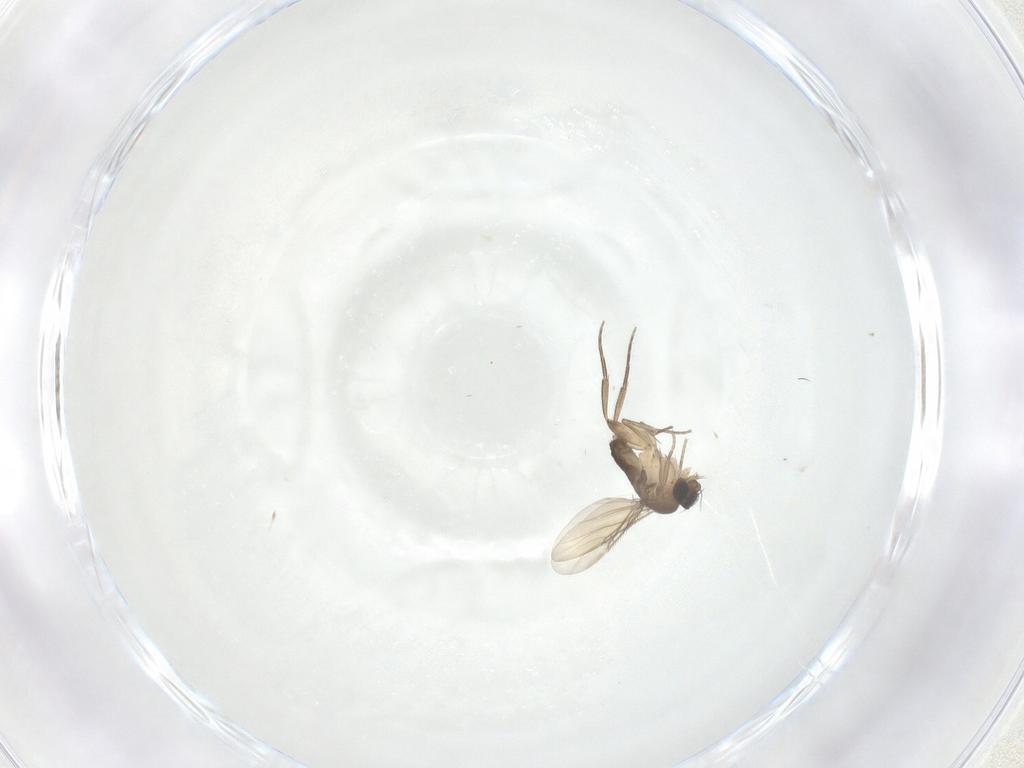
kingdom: Animalia
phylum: Arthropoda
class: Insecta
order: Diptera
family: Phoridae
